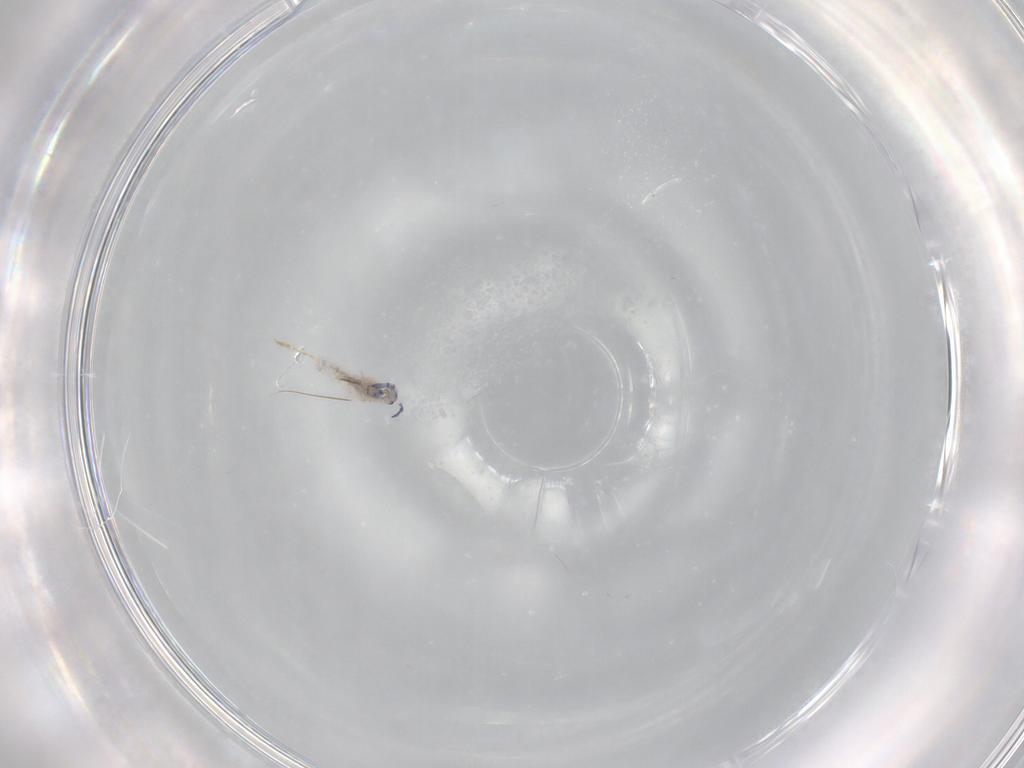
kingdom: Animalia
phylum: Arthropoda
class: Collembola
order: Entomobryomorpha
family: Entomobryidae
